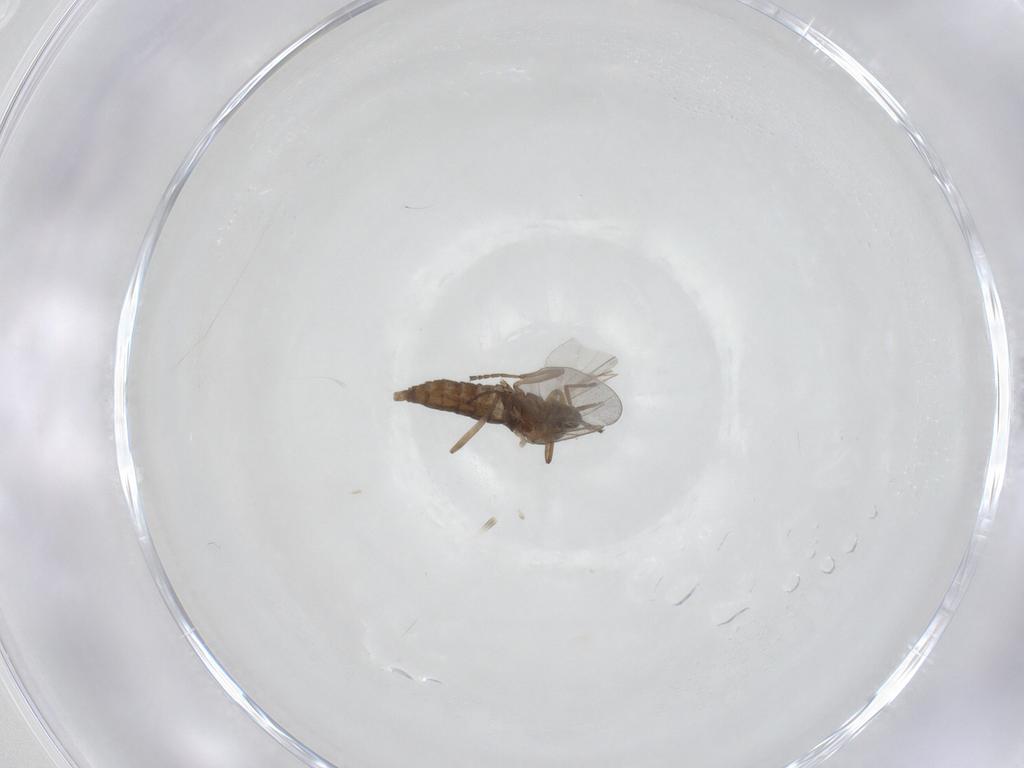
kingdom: Animalia
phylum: Arthropoda
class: Insecta
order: Diptera
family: Cecidomyiidae
